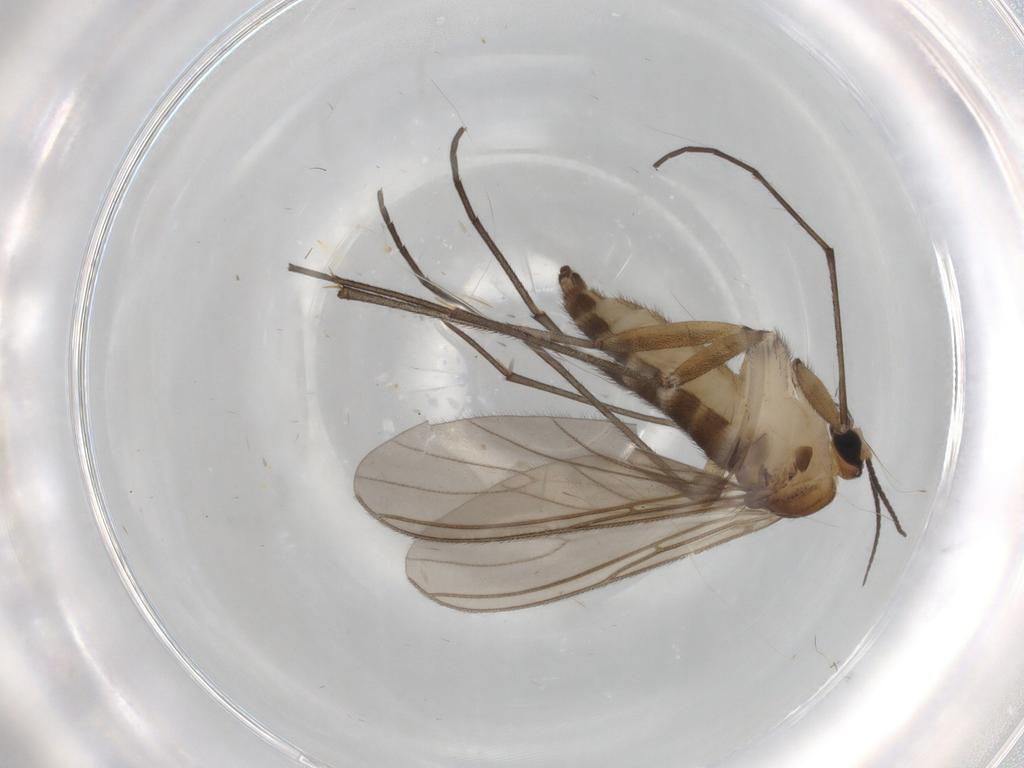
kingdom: Animalia
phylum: Arthropoda
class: Insecta
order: Diptera
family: Sciaridae
